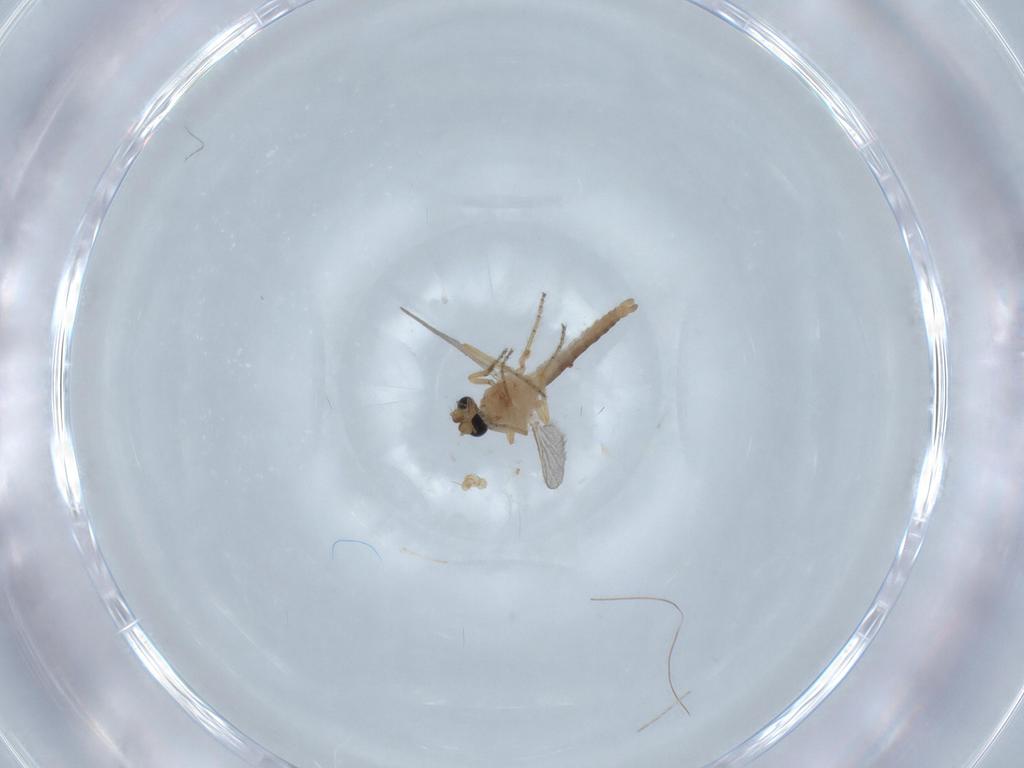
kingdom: Animalia
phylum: Arthropoda
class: Insecta
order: Diptera
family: Ceratopogonidae
